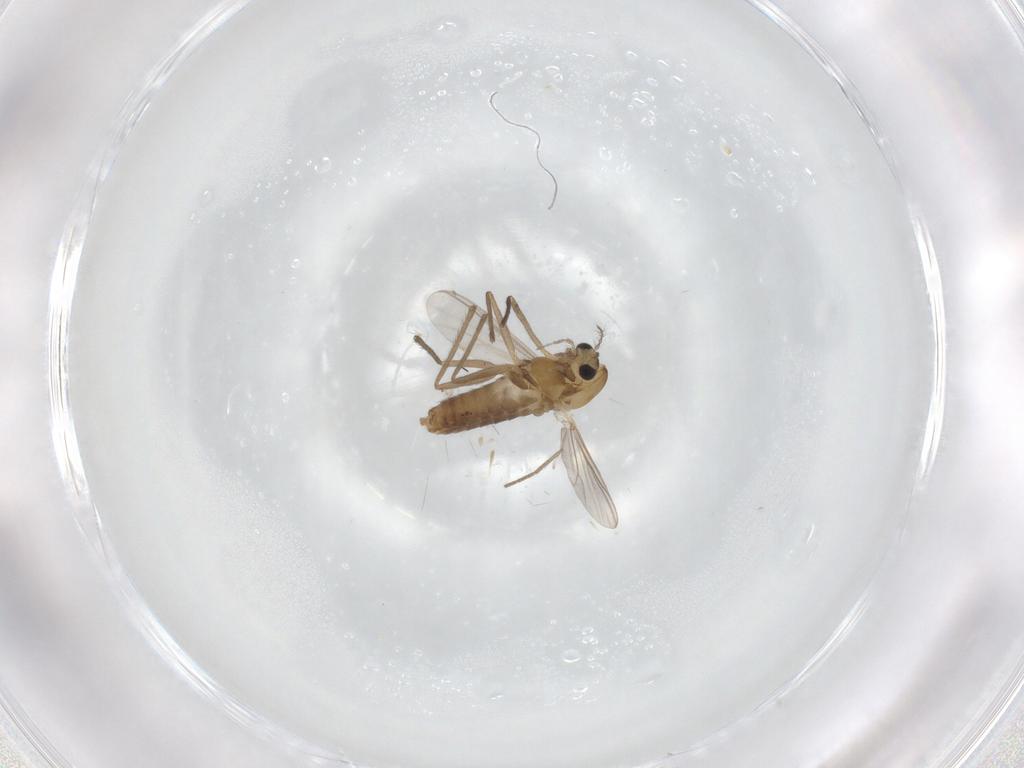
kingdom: Animalia
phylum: Arthropoda
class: Insecta
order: Diptera
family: Chironomidae
